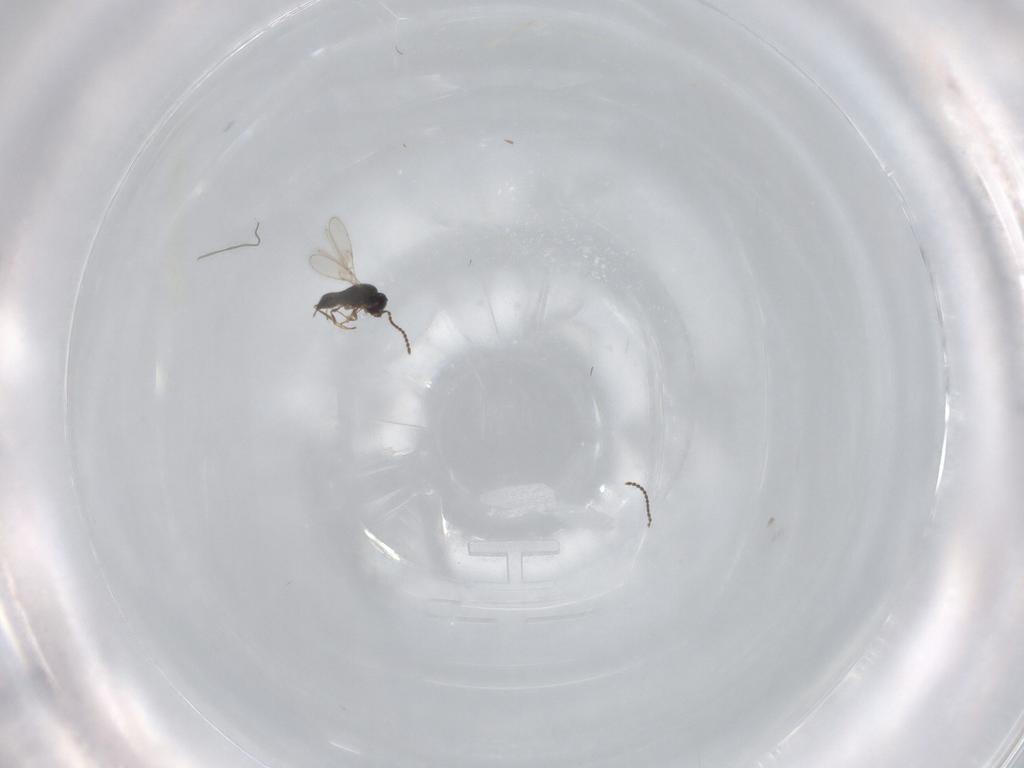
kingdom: Animalia
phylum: Arthropoda
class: Insecta
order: Hymenoptera
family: Scelionidae
